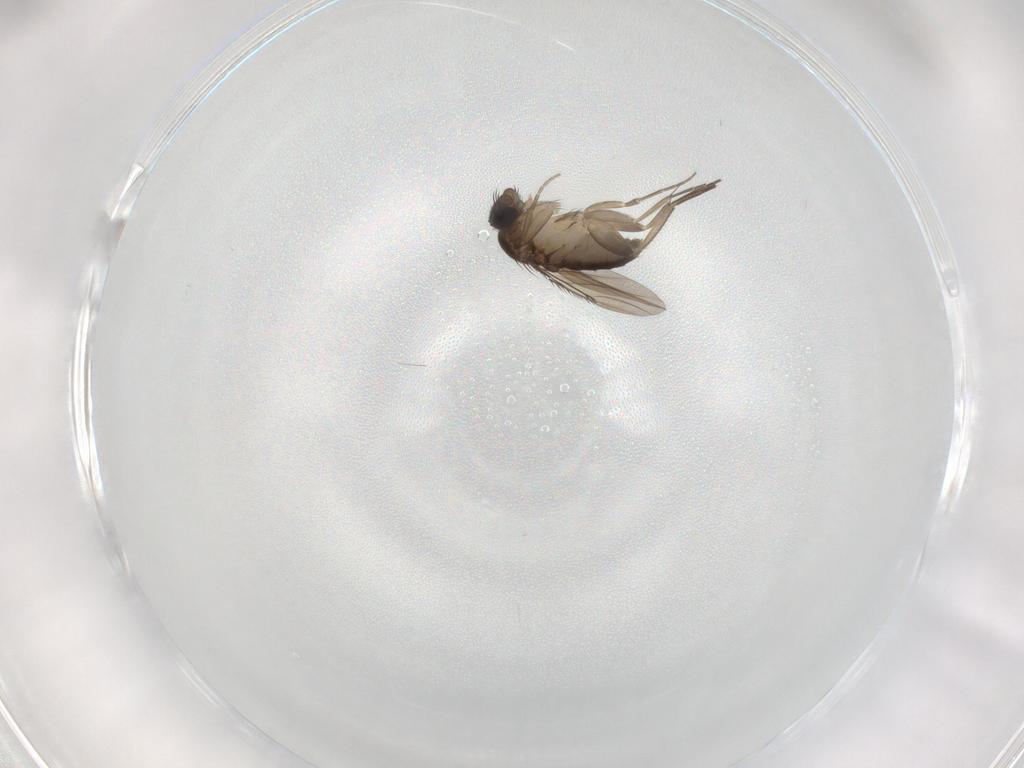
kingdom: Animalia
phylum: Arthropoda
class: Insecta
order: Diptera
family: Phoridae
